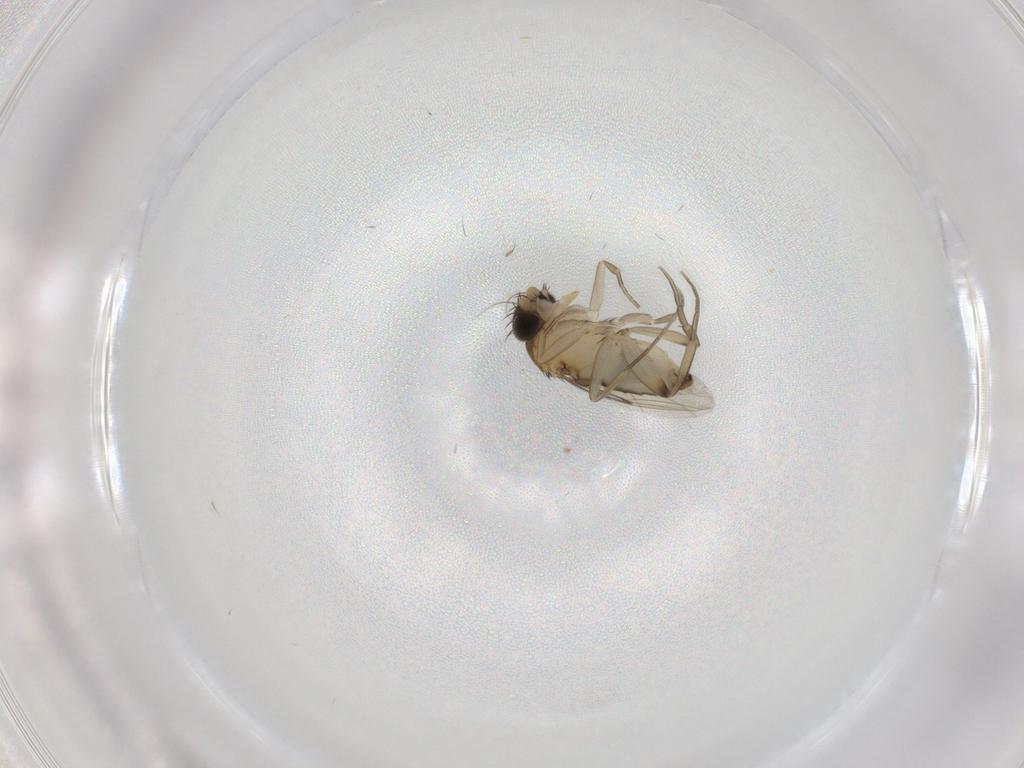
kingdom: Animalia
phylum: Arthropoda
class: Insecta
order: Diptera
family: Phoridae
